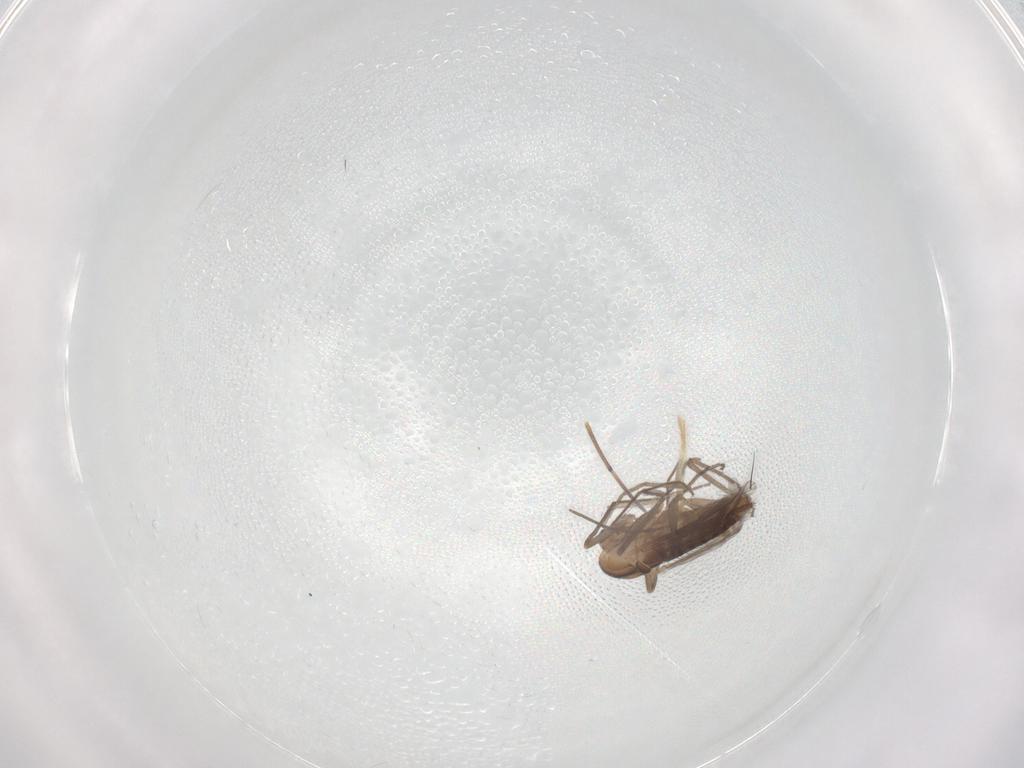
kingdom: Animalia
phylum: Arthropoda
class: Insecta
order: Diptera
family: Chironomidae
